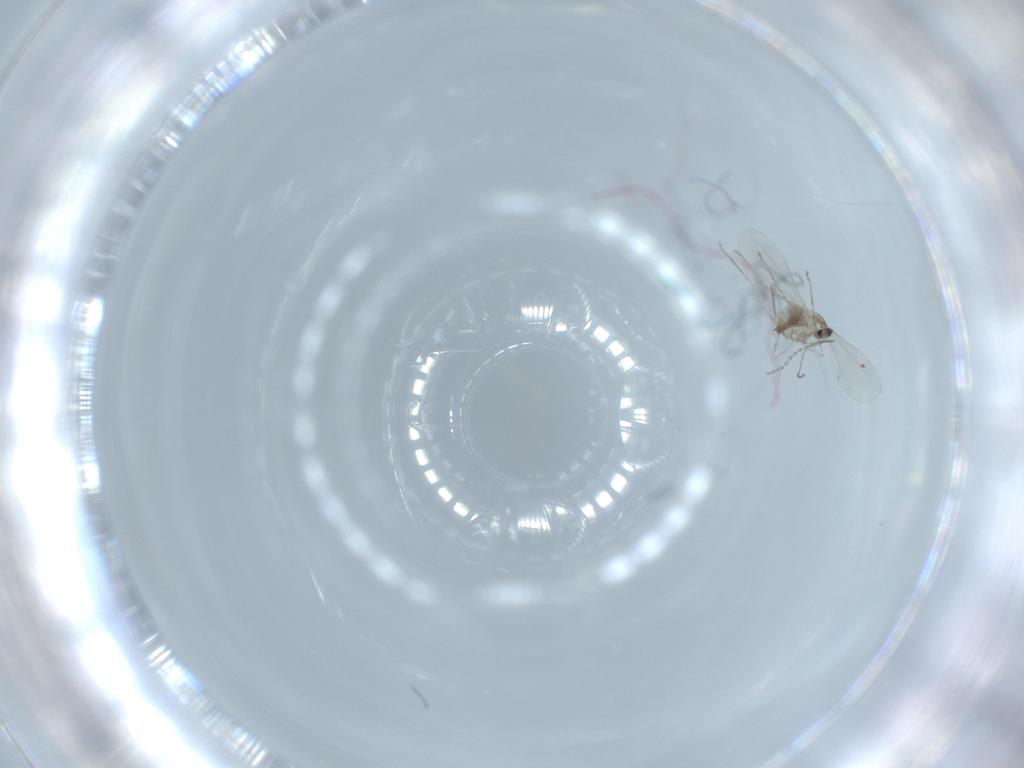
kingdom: Animalia
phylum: Arthropoda
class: Insecta
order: Diptera
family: Cecidomyiidae
